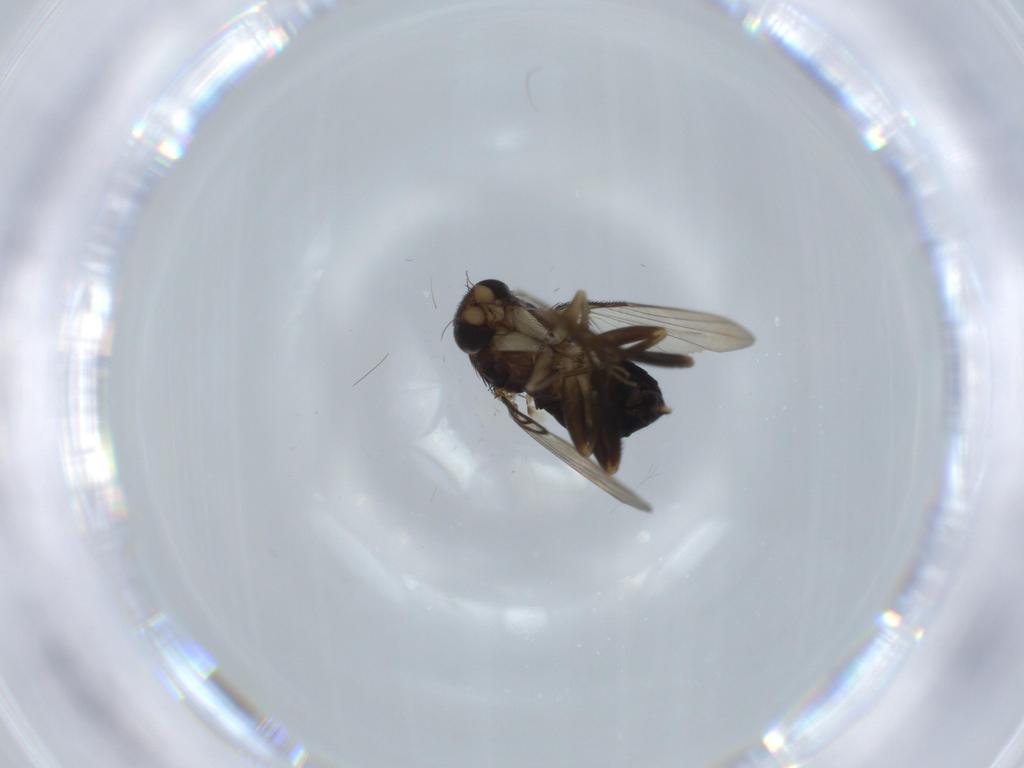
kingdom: Animalia
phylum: Arthropoda
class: Insecta
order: Diptera
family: Phoridae
